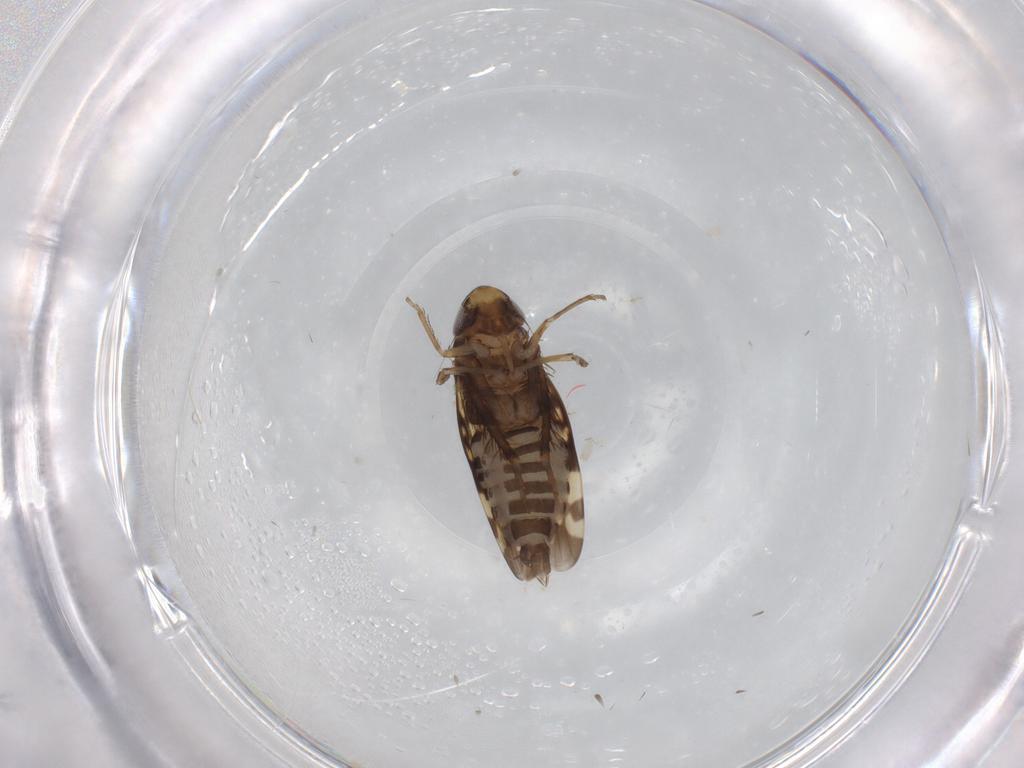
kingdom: Animalia
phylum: Arthropoda
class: Insecta
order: Hemiptera
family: Cicadellidae
